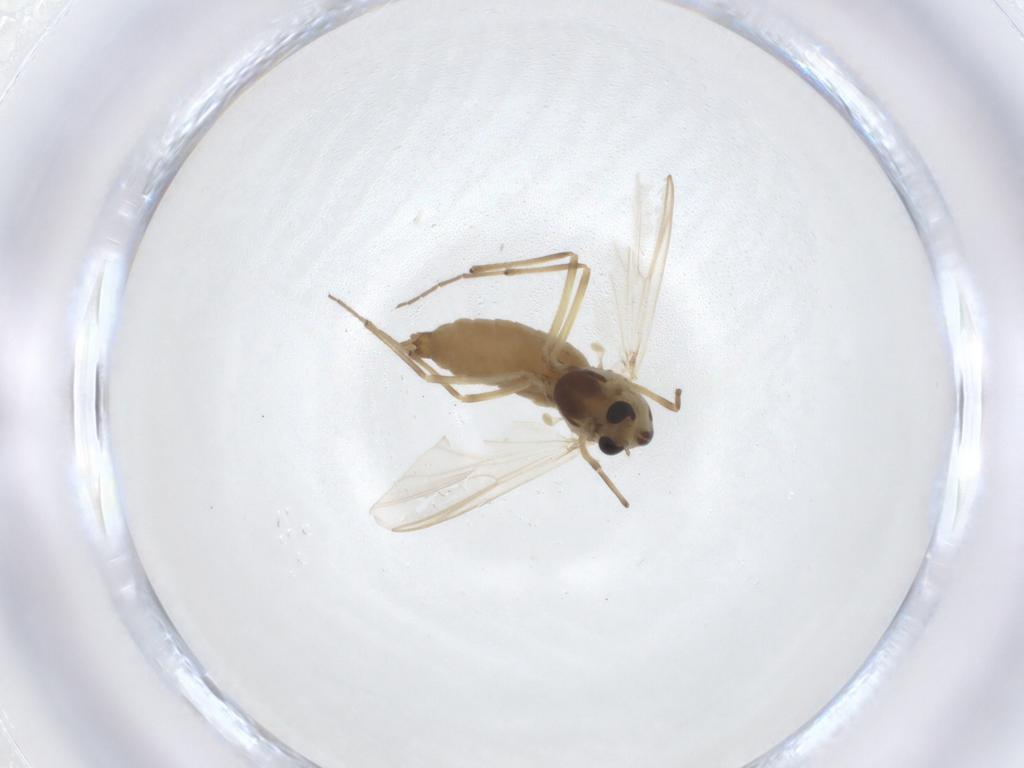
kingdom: Animalia
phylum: Arthropoda
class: Insecta
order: Diptera
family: Chironomidae
